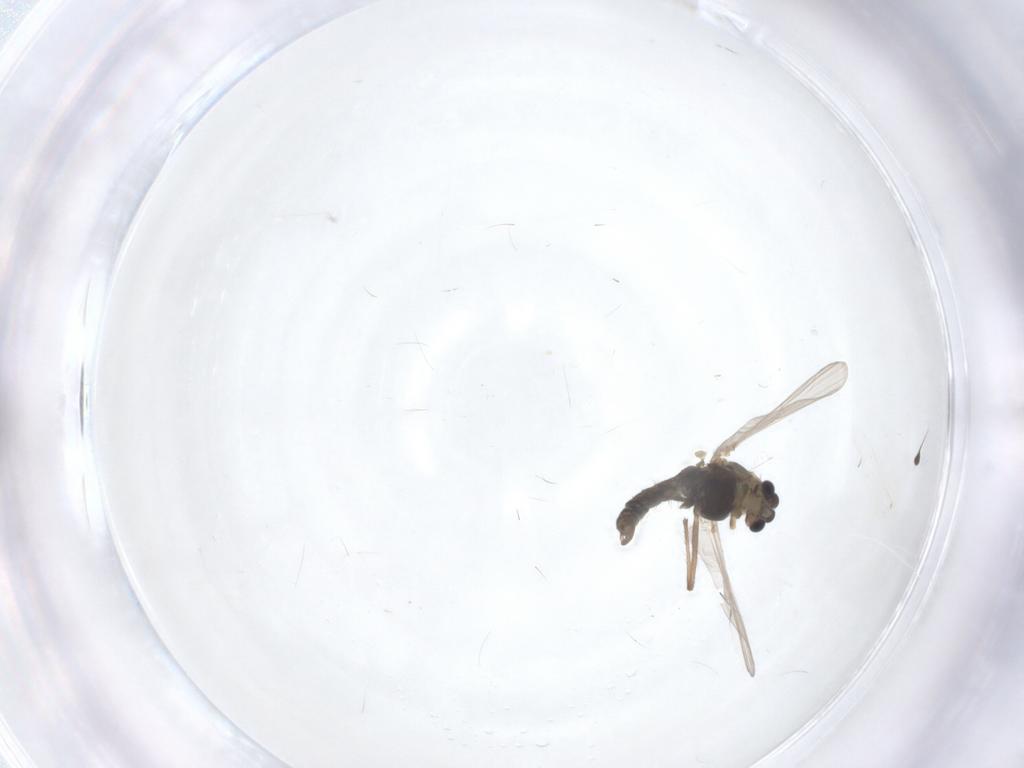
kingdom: Animalia
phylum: Arthropoda
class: Insecta
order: Diptera
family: Chironomidae
